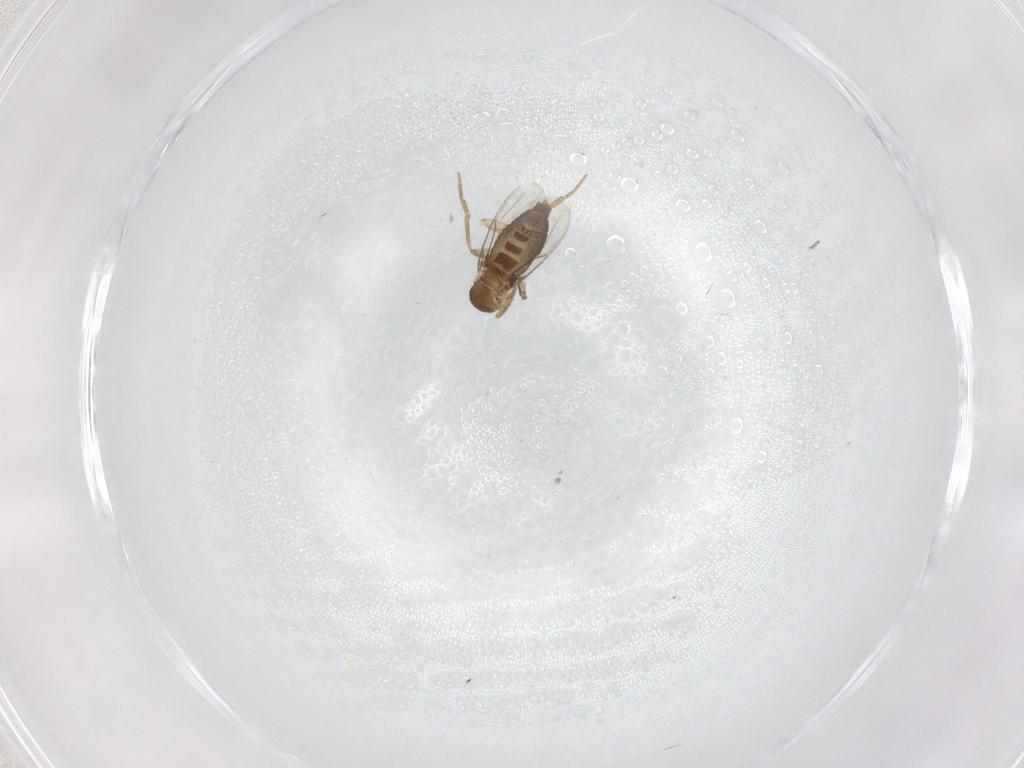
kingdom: Animalia
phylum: Arthropoda
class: Insecta
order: Diptera
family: Phoridae
